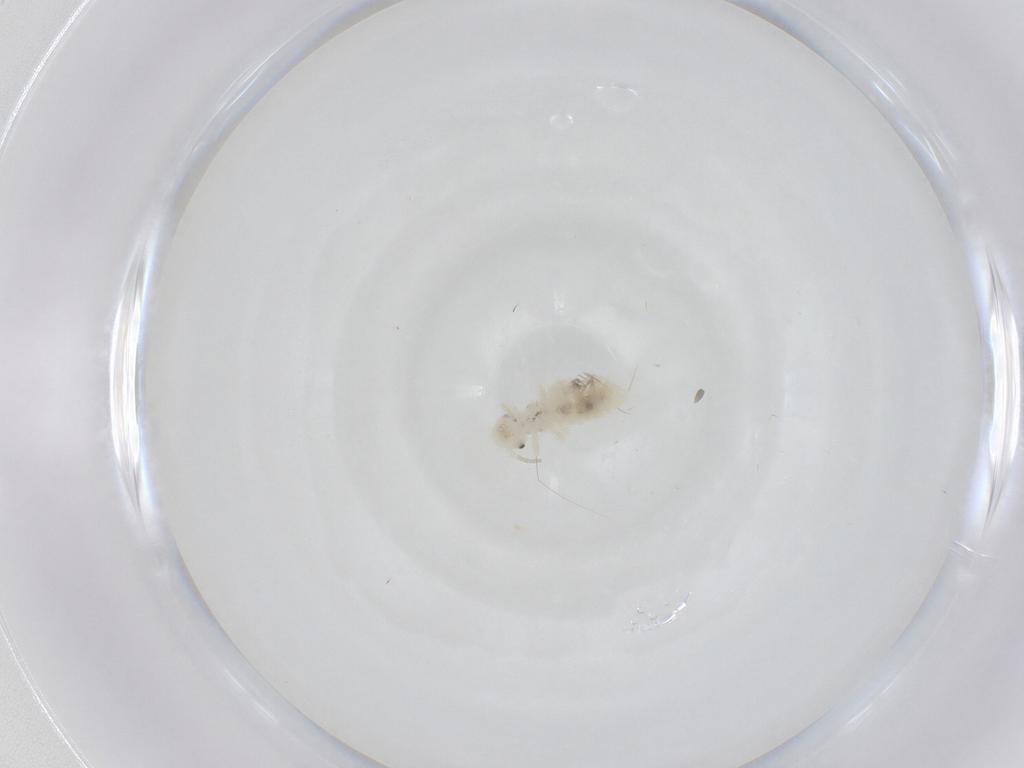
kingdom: Animalia
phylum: Arthropoda
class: Insecta
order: Psocodea
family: Caeciliusidae
